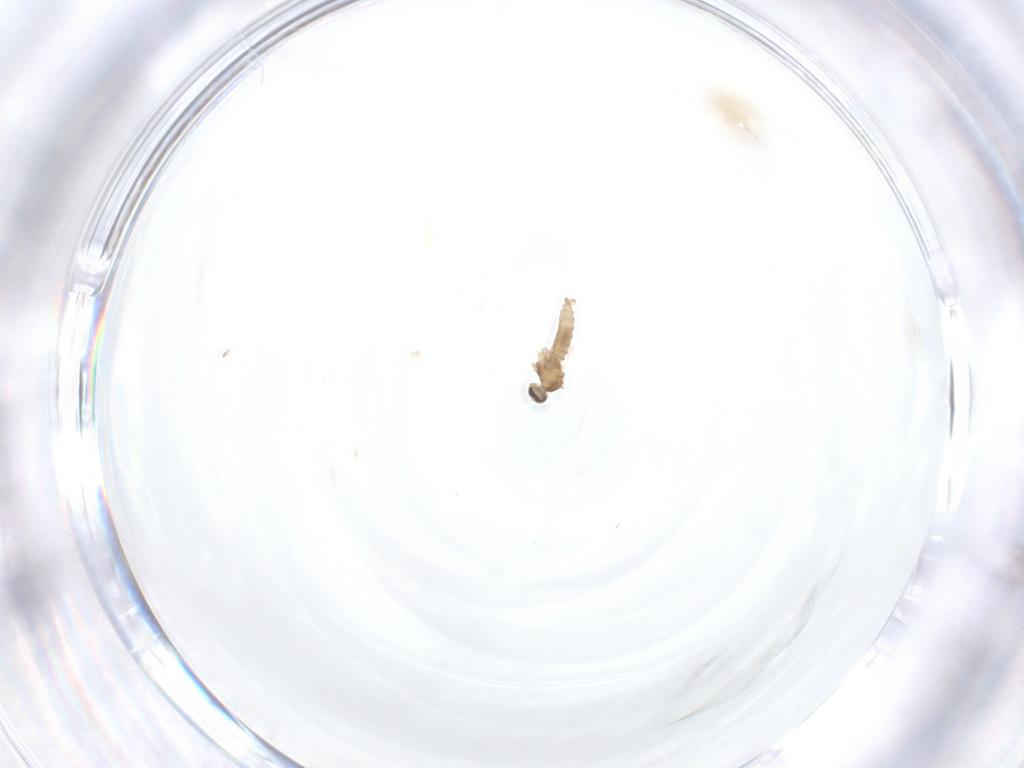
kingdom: Animalia
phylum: Arthropoda
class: Insecta
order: Diptera
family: Cecidomyiidae
